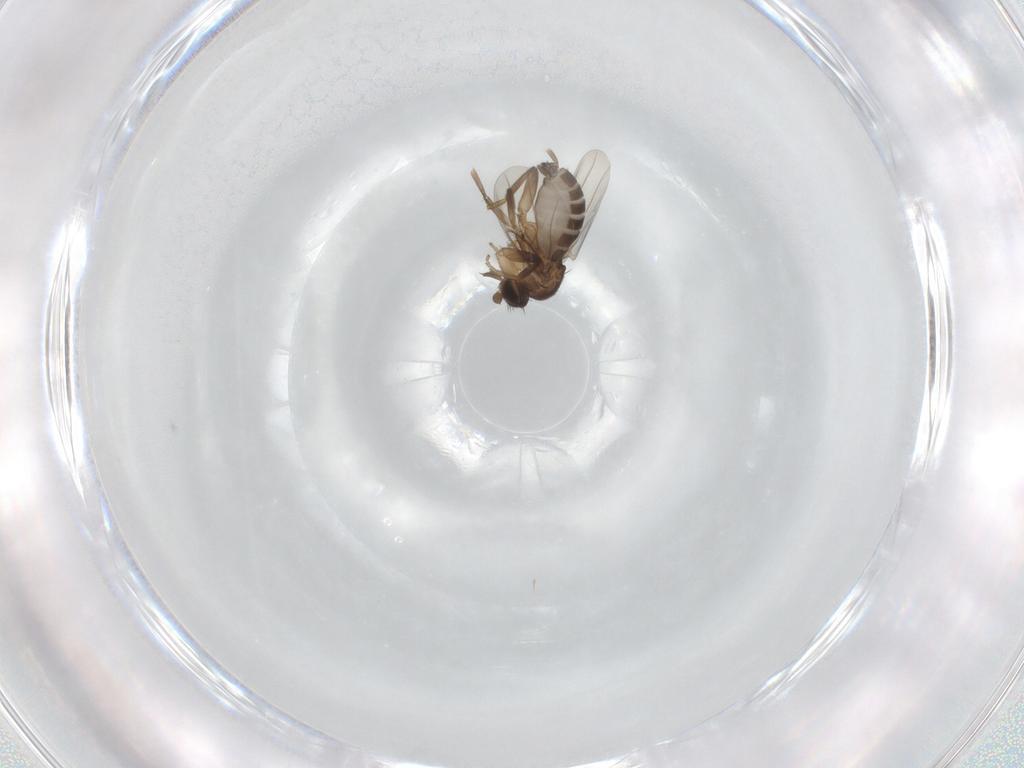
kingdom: Animalia
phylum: Arthropoda
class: Insecta
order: Diptera
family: Phoridae
